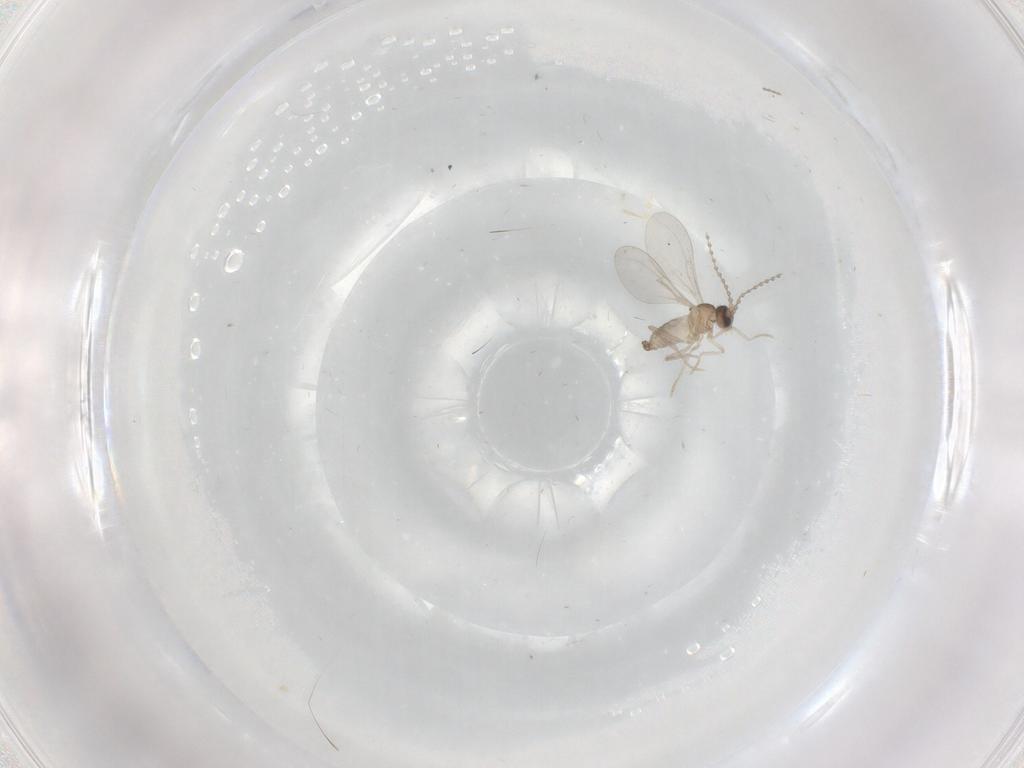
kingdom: Animalia
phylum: Arthropoda
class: Insecta
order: Diptera
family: Cecidomyiidae
